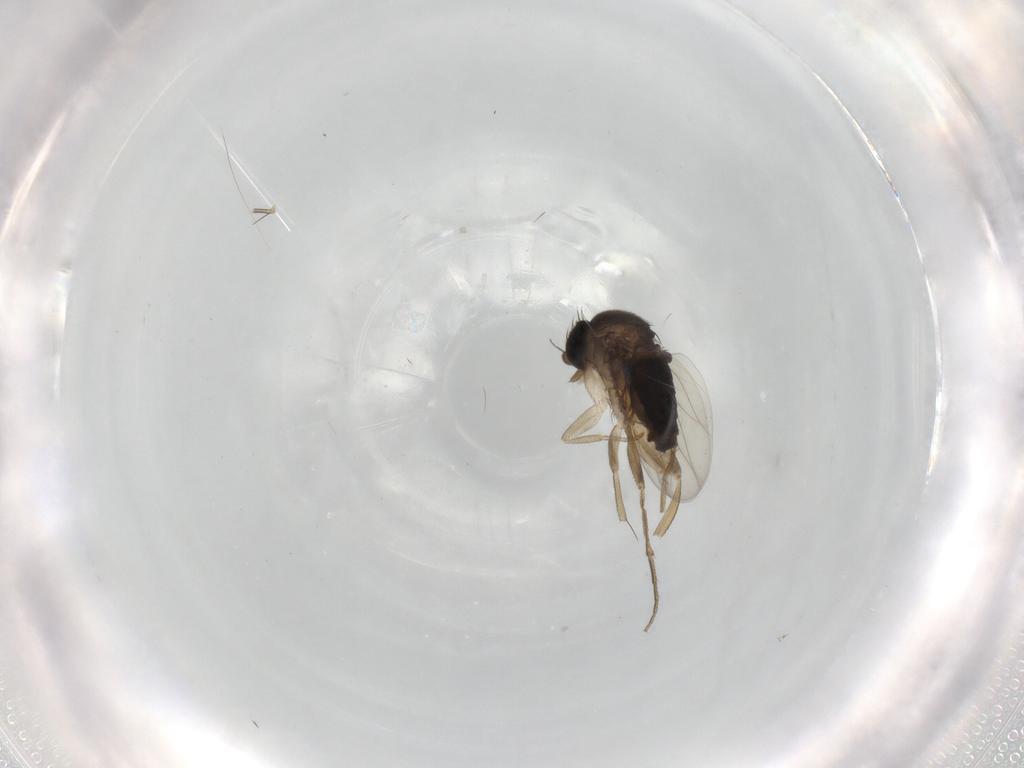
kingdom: Animalia
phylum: Arthropoda
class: Insecta
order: Diptera
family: Phoridae
